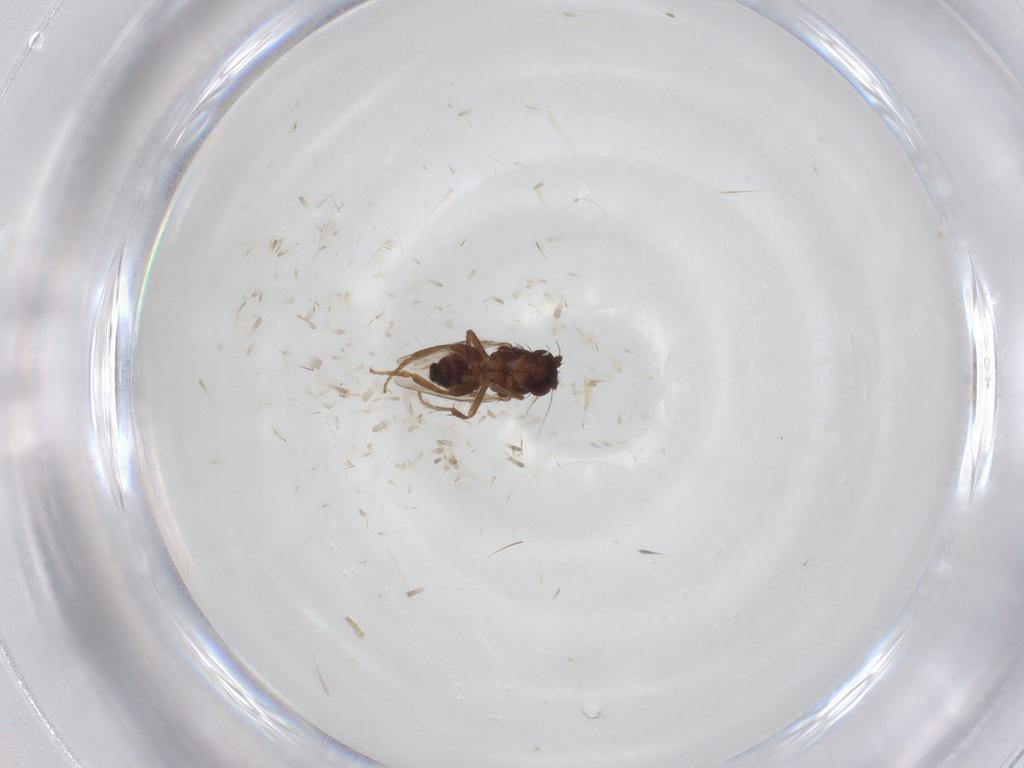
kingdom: Animalia
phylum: Arthropoda
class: Insecta
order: Diptera
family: Sphaeroceridae
